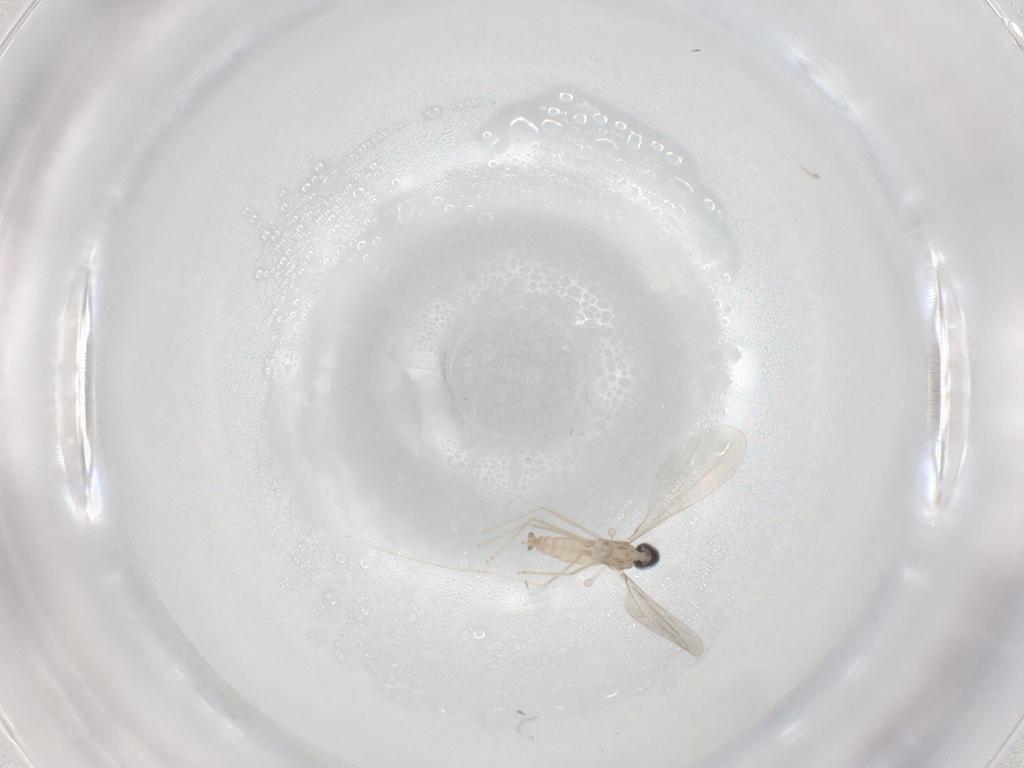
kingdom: Animalia
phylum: Arthropoda
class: Insecta
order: Diptera
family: Cecidomyiidae
